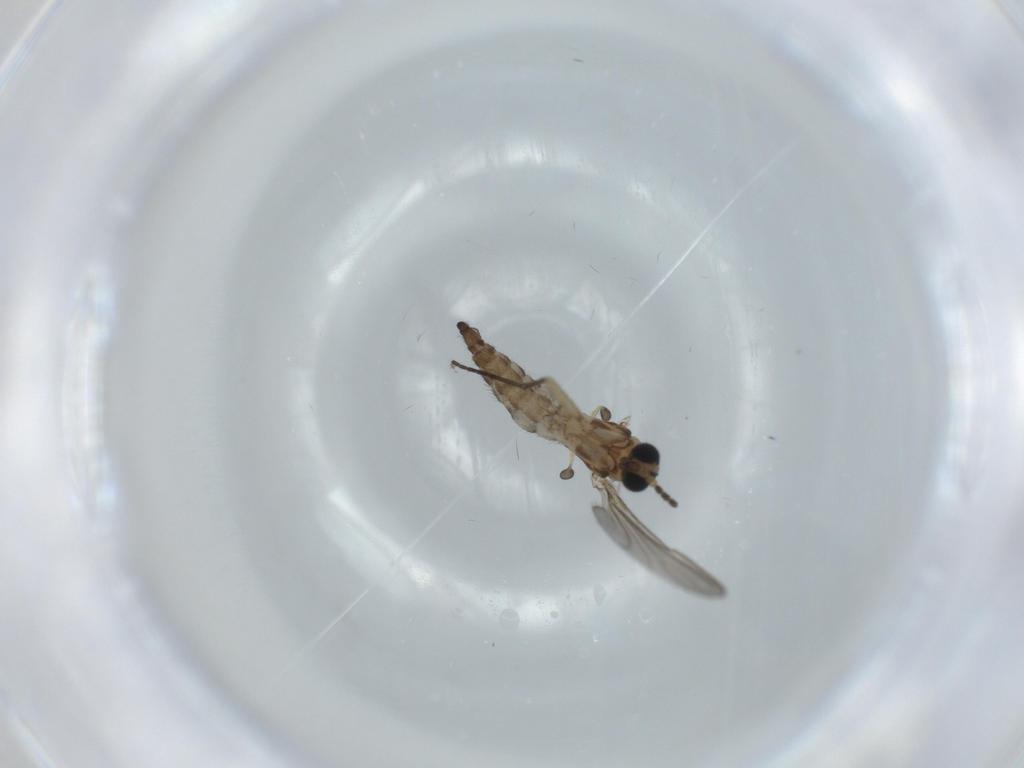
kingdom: Animalia
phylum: Arthropoda
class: Insecta
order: Diptera
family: Sciaridae
